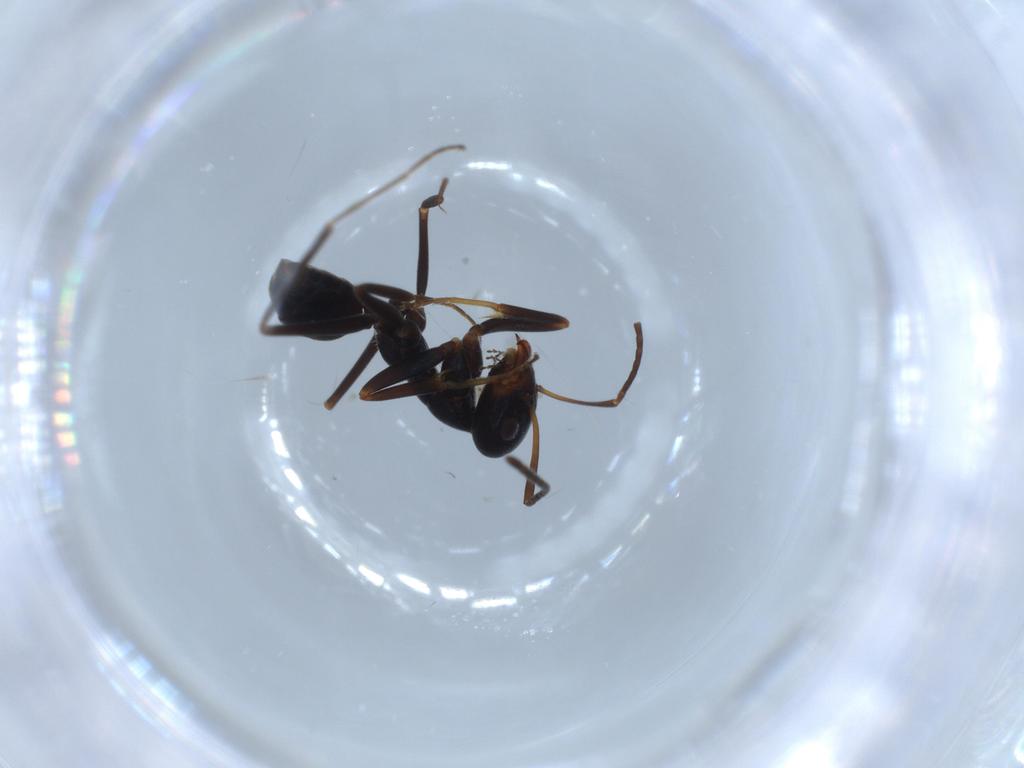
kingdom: Animalia
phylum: Arthropoda
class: Insecta
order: Hymenoptera
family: Formicidae
